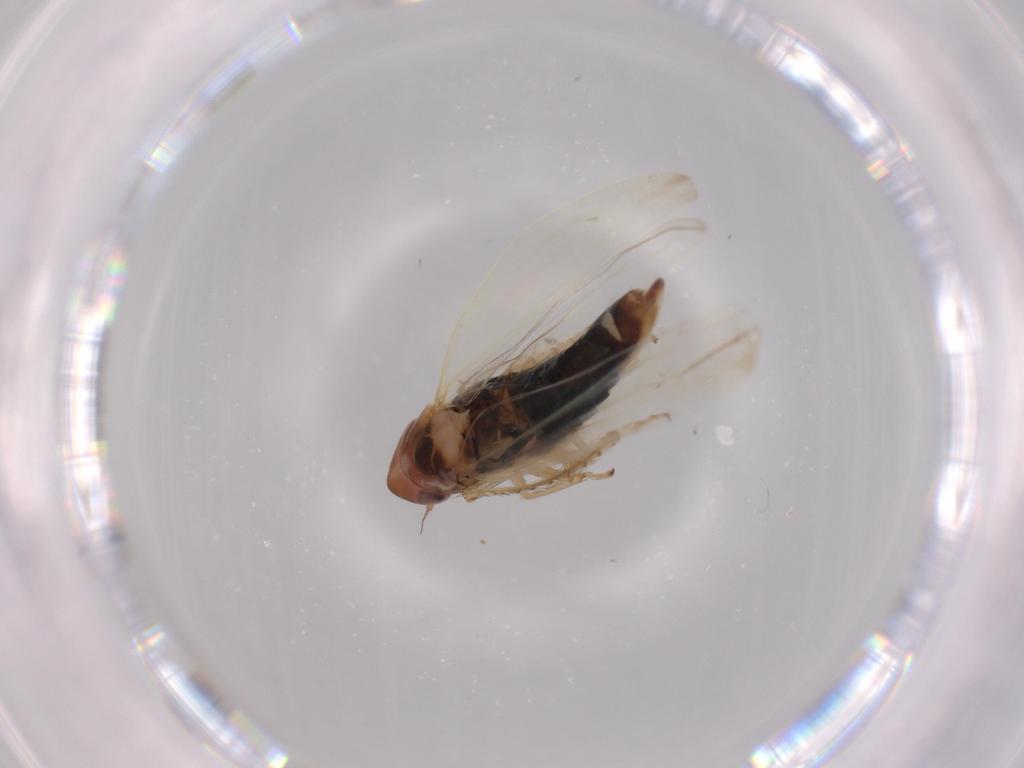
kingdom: Animalia
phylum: Arthropoda
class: Insecta
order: Hemiptera
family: Cicadellidae
